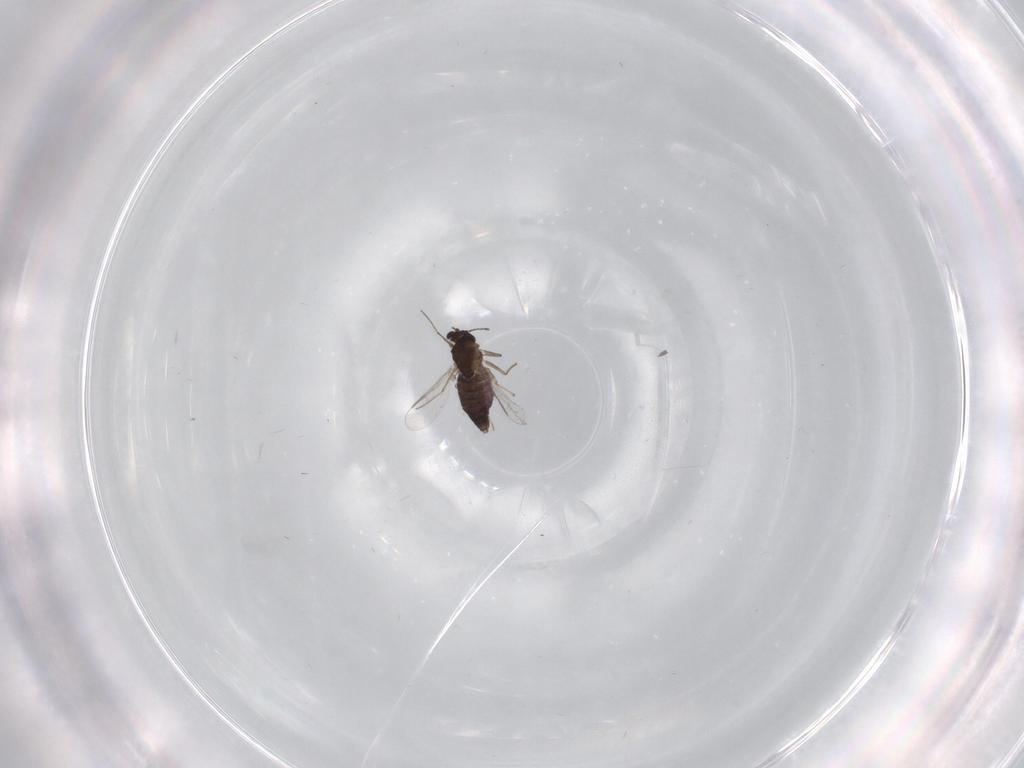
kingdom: Animalia
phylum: Arthropoda
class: Insecta
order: Diptera
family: Chironomidae
